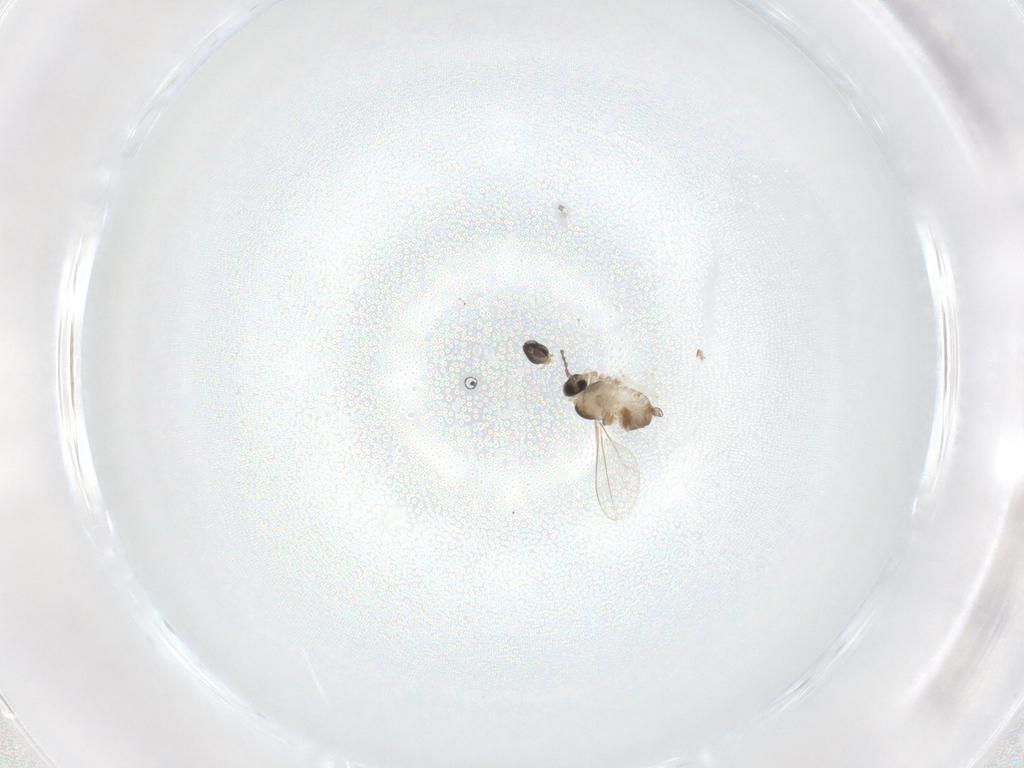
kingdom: Animalia
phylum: Arthropoda
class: Insecta
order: Diptera
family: Cecidomyiidae
